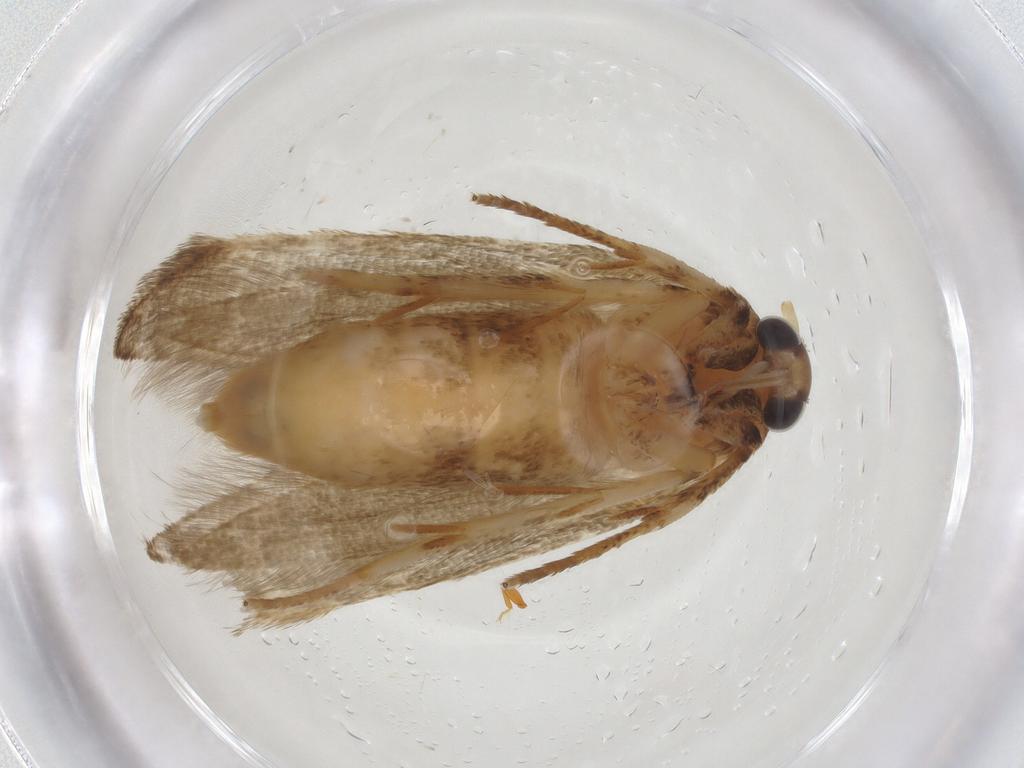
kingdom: Animalia
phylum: Arthropoda
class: Insecta
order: Lepidoptera
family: Blastobasidae
